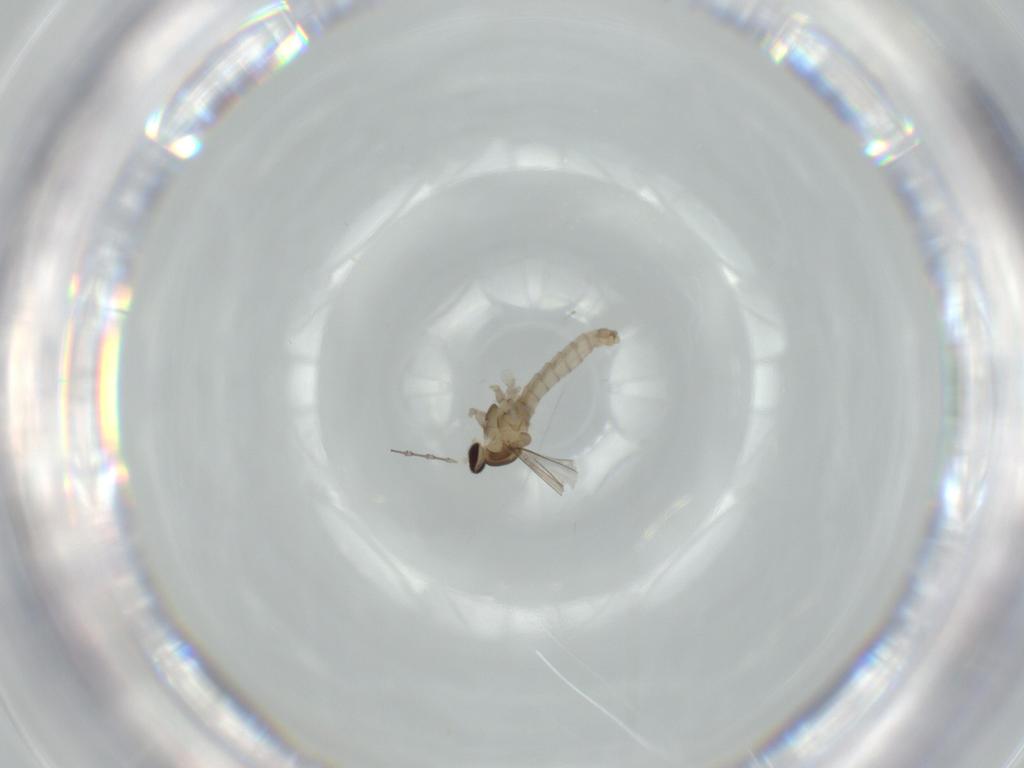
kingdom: Animalia
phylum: Arthropoda
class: Insecta
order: Diptera
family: Cecidomyiidae
